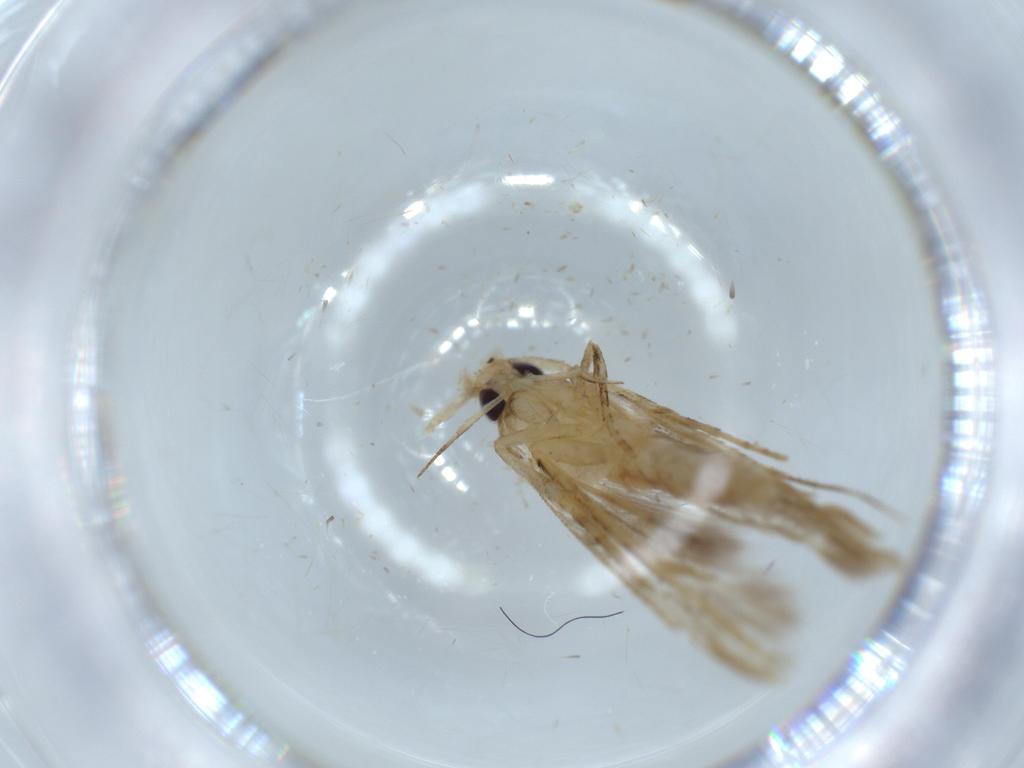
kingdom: Animalia
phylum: Arthropoda
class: Insecta
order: Lepidoptera
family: Heliodinidae
